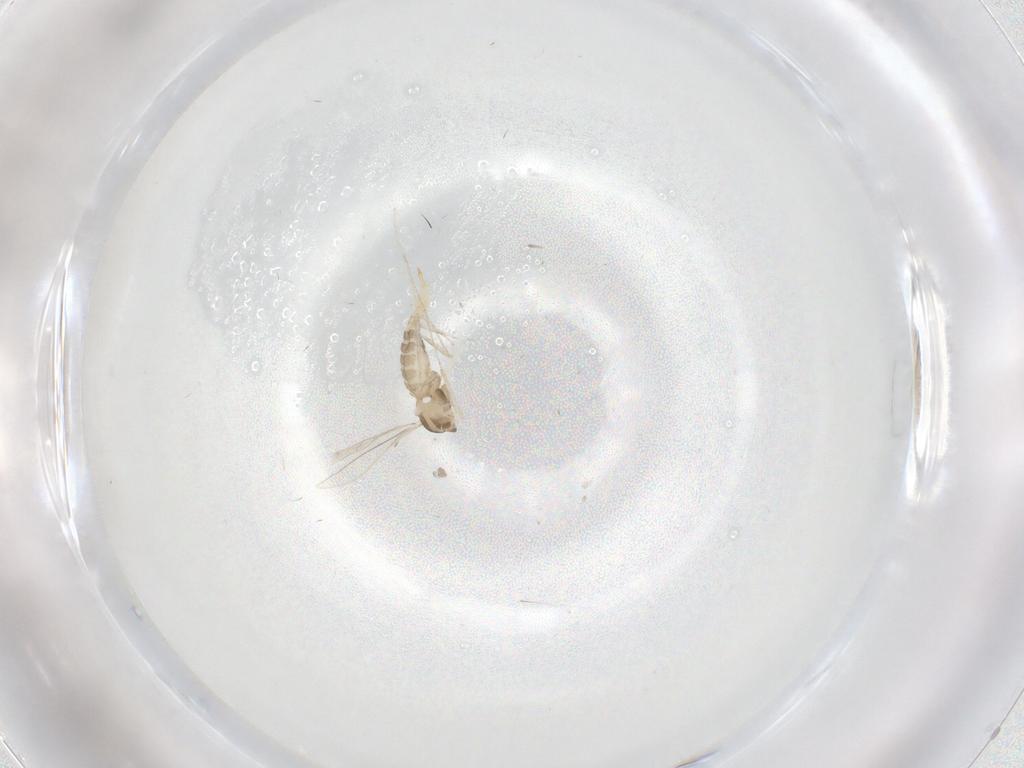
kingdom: Animalia
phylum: Arthropoda
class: Insecta
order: Diptera
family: Cecidomyiidae
